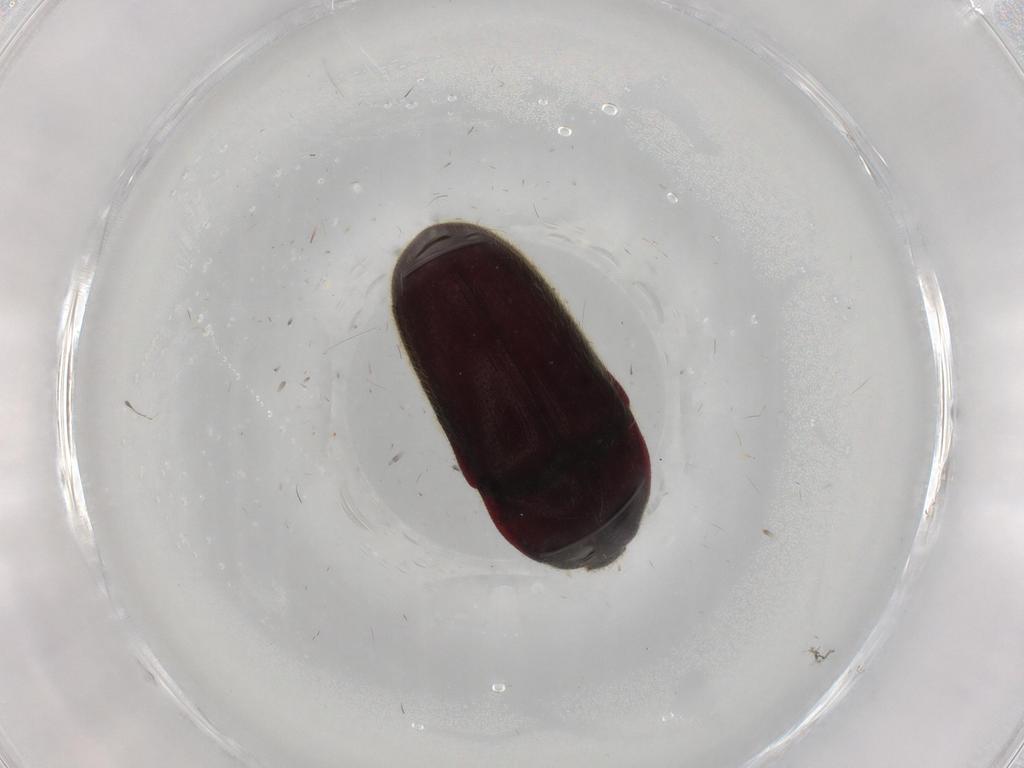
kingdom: Animalia
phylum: Arthropoda
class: Insecta
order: Coleoptera
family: Throscidae
